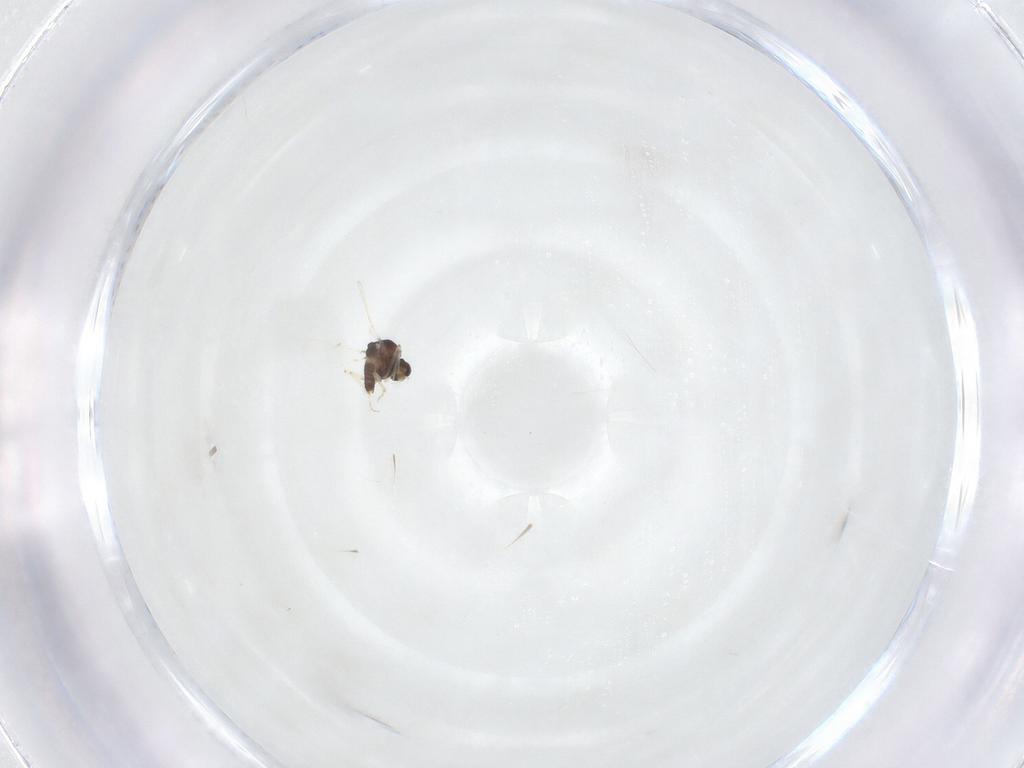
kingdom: Animalia
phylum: Arthropoda
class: Insecta
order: Diptera
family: Chironomidae
